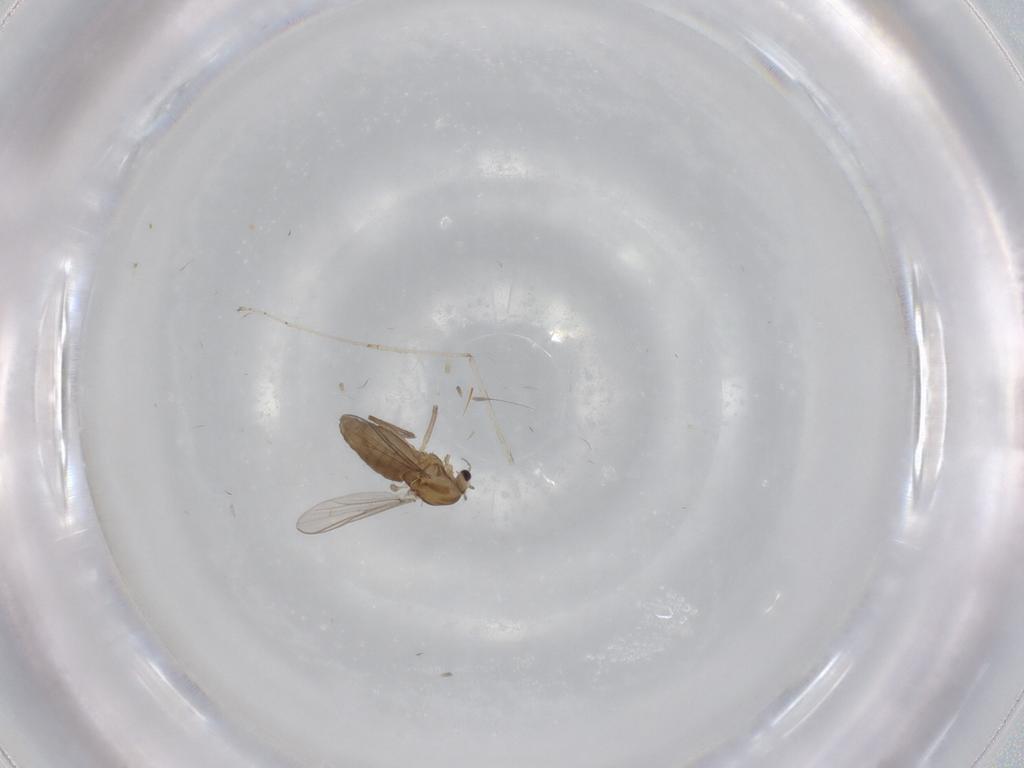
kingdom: Animalia
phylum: Arthropoda
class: Insecta
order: Diptera
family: Chironomidae
